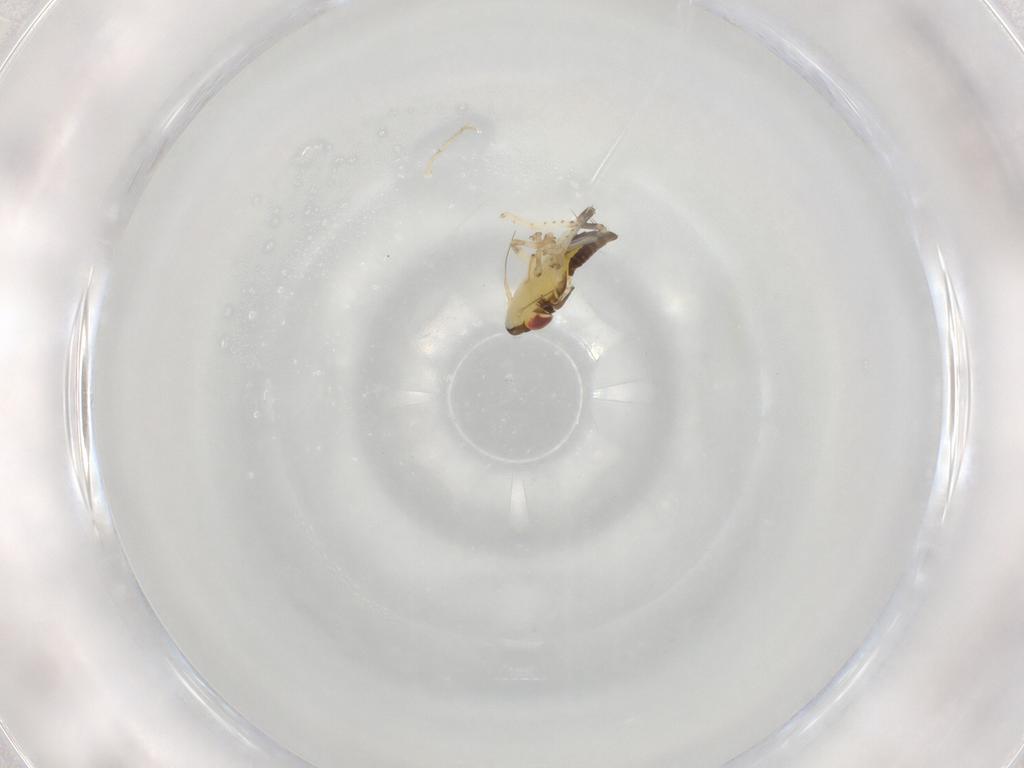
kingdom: Animalia
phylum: Arthropoda
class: Insecta
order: Hemiptera
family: Cicadellidae
